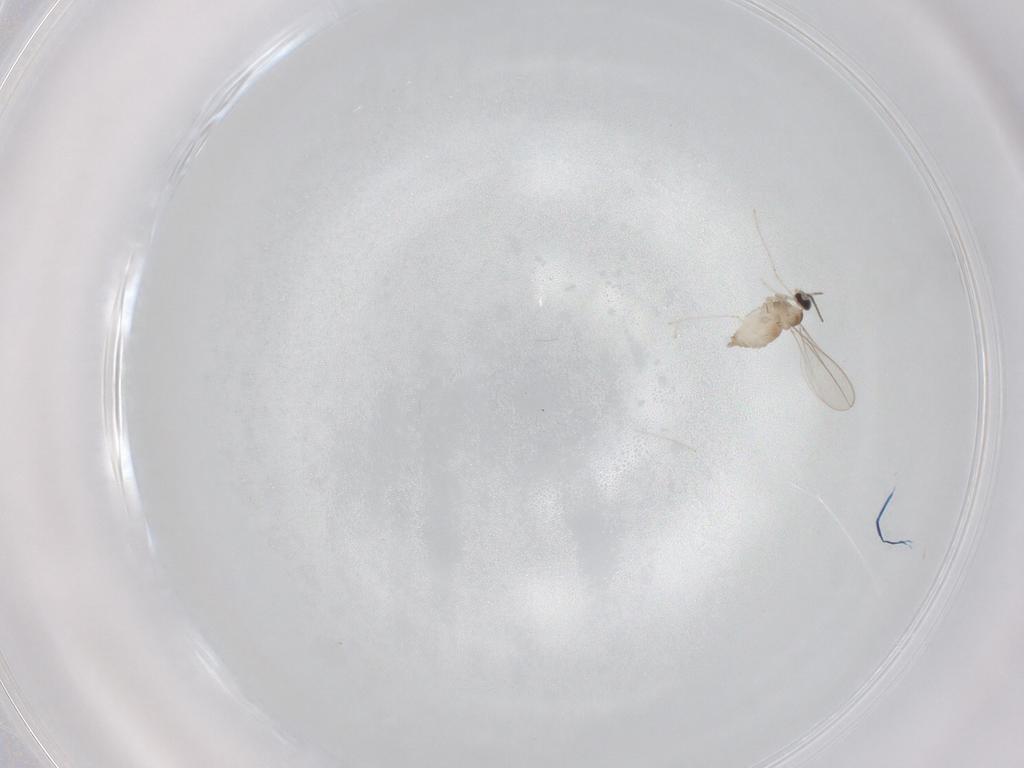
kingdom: Animalia
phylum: Arthropoda
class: Insecta
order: Diptera
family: Cecidomyiidae
